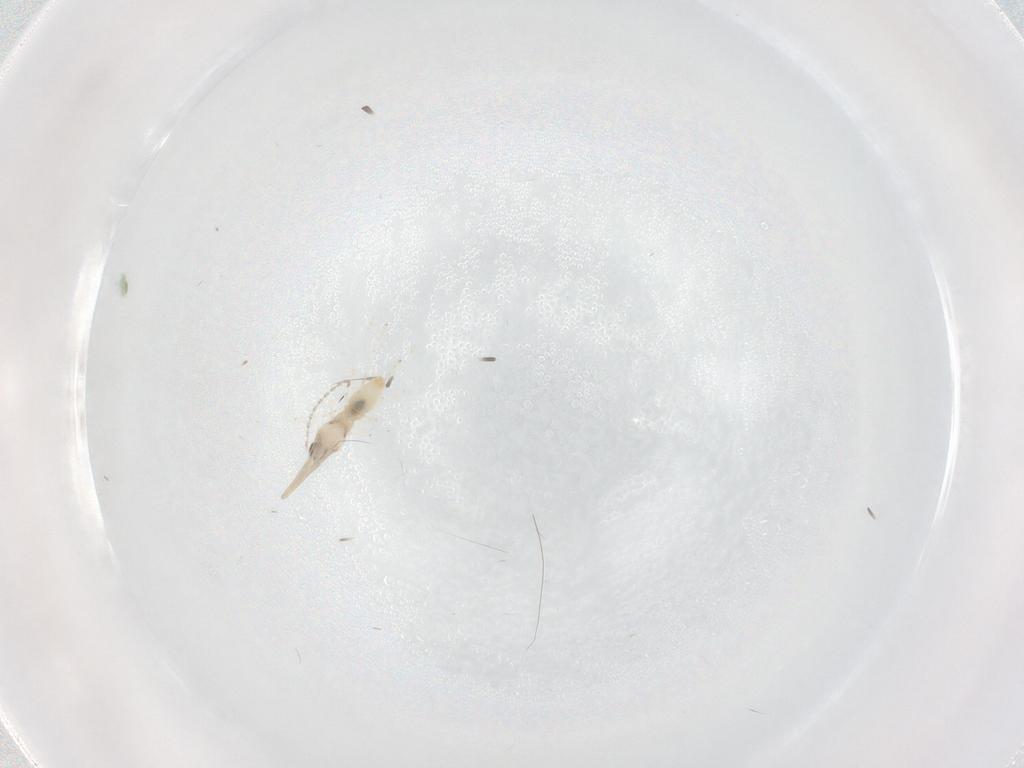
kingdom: Animalia
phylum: Arthropoda
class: Insecta
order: Diptera
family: Cecidomyiidae
